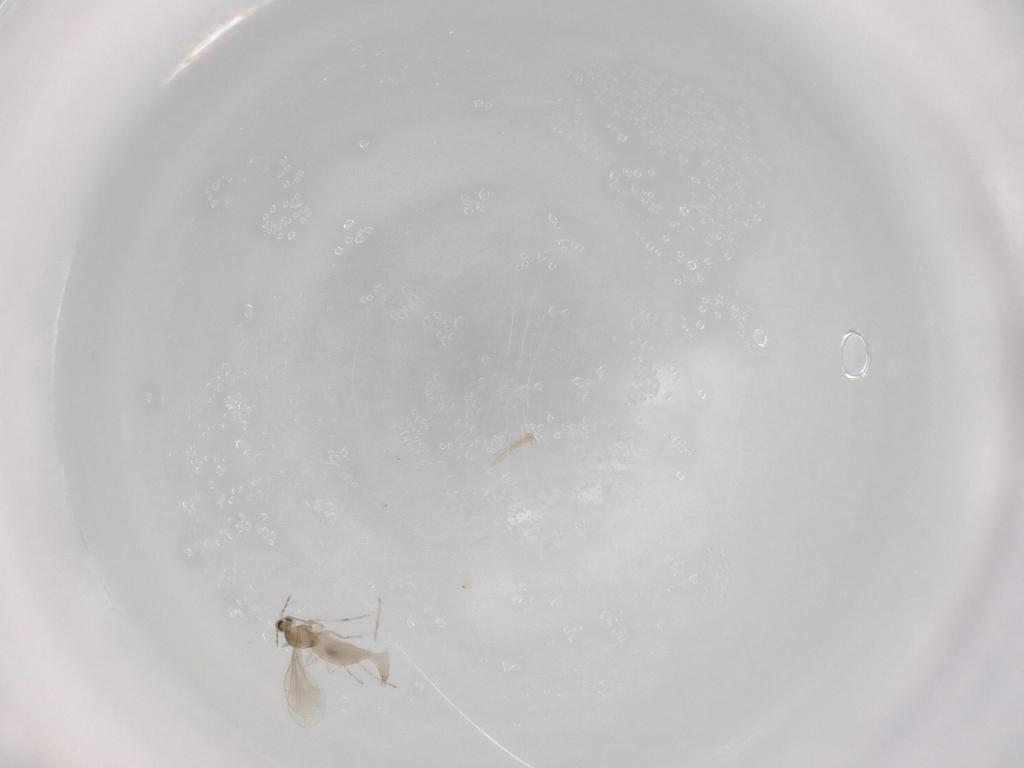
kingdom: Animalia
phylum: Arthropoda
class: Insecta
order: Diptera
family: Cecidomyiidae
